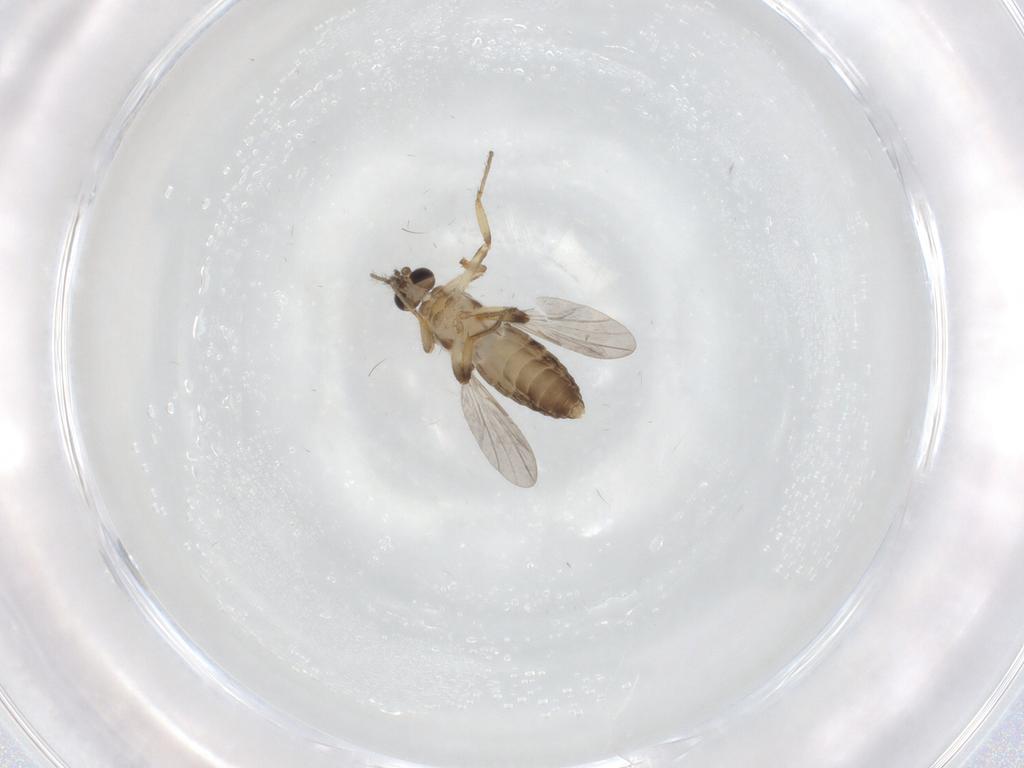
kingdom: Animalia
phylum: Arthropoda
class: Insecta
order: Diptera
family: Ceratopogonidae
